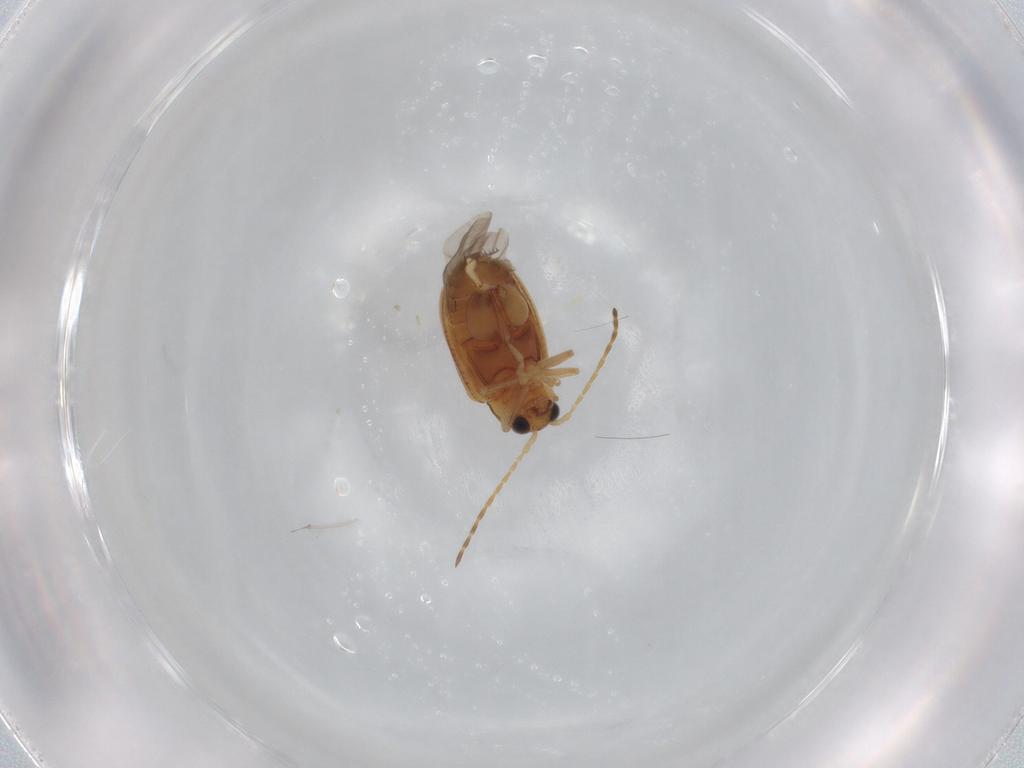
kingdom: Animalia
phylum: Arthropoda
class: Insecta
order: Coleoptera
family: Chrysomelidae
